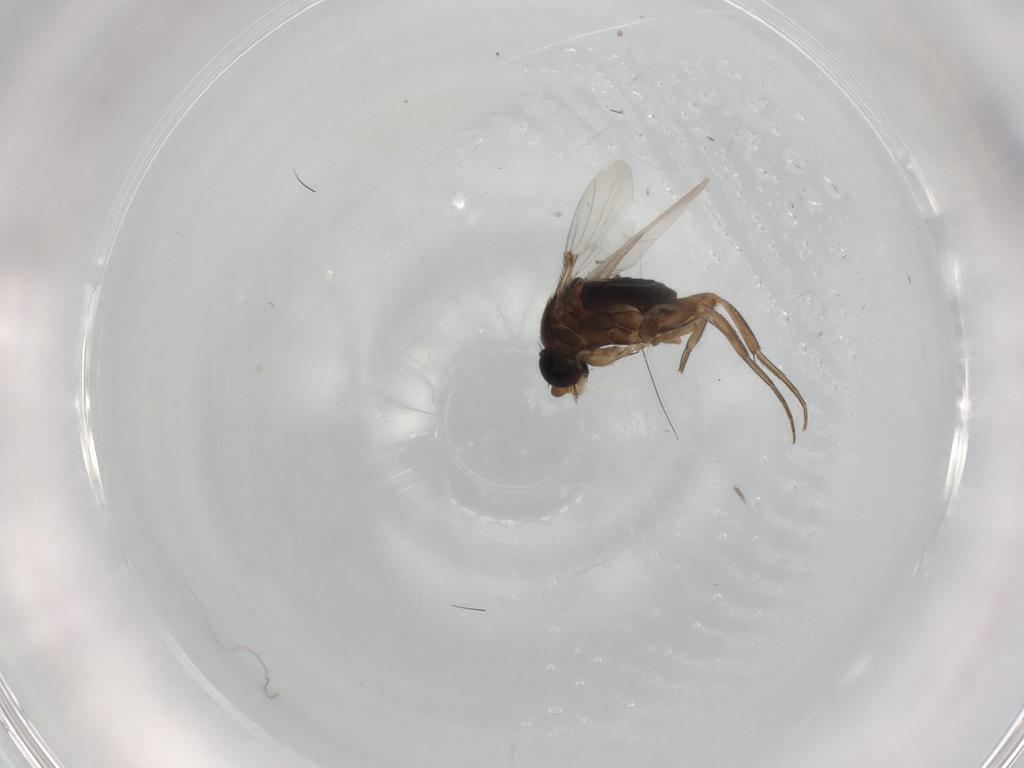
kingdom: Animalia
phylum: Arthropoda
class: Insecta
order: Diptera
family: Phoridae
